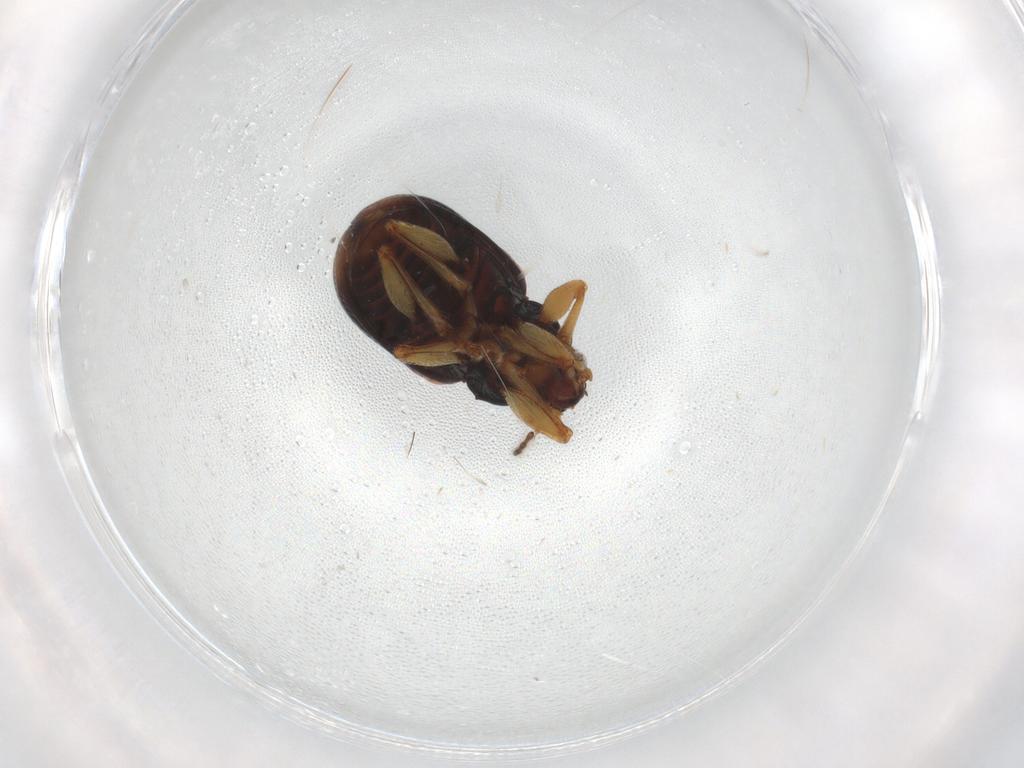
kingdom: Animalia
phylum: Arthropoda
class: Insecta
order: Coleoptera
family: Chrysomelidae
